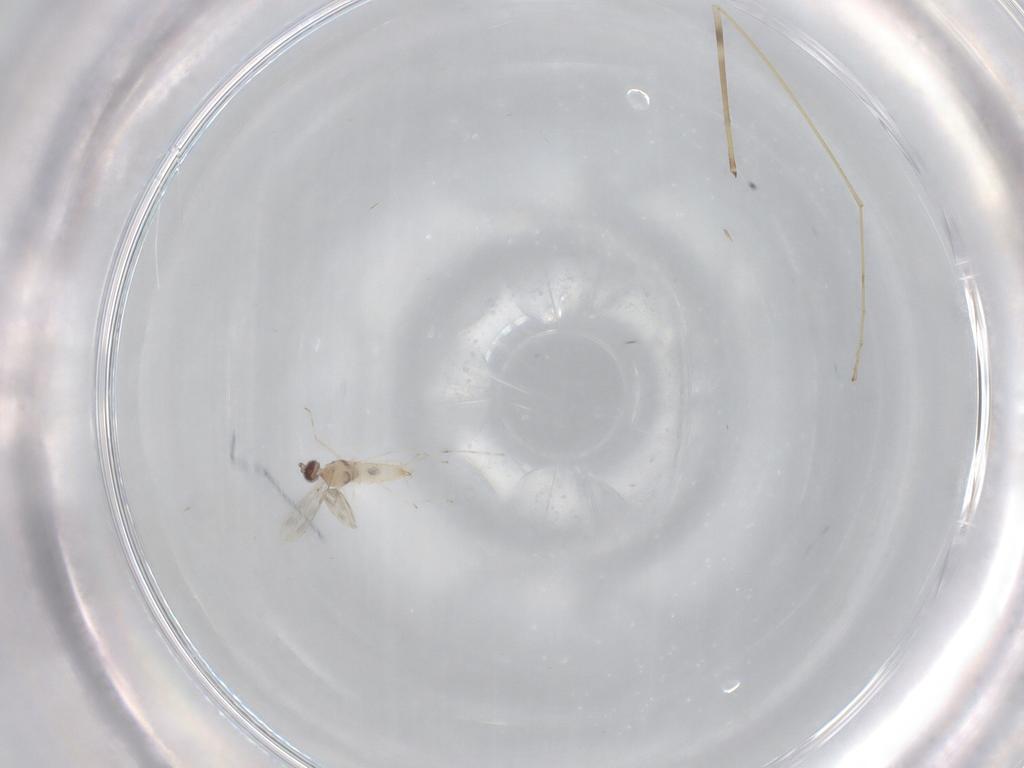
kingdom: Animalia
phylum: Arthropoda
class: Insecta
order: Diptera
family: Limoniidae
